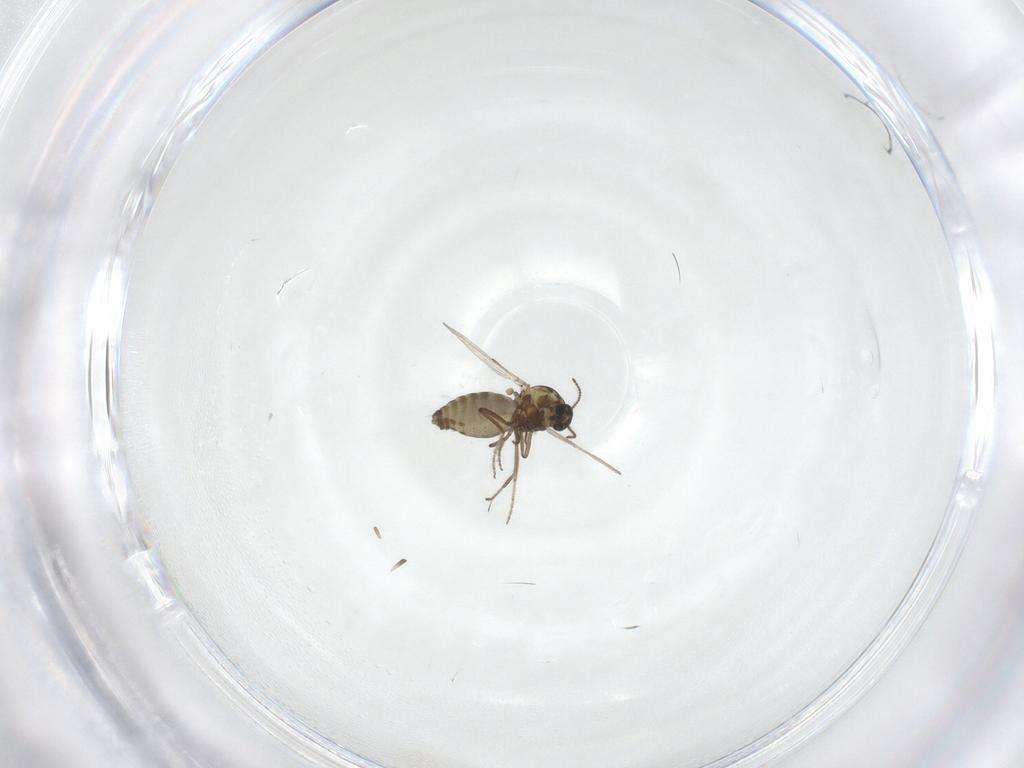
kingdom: Animalia
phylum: Arthropoda
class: Insecta
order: Diptera
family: Ceratopogonidae
